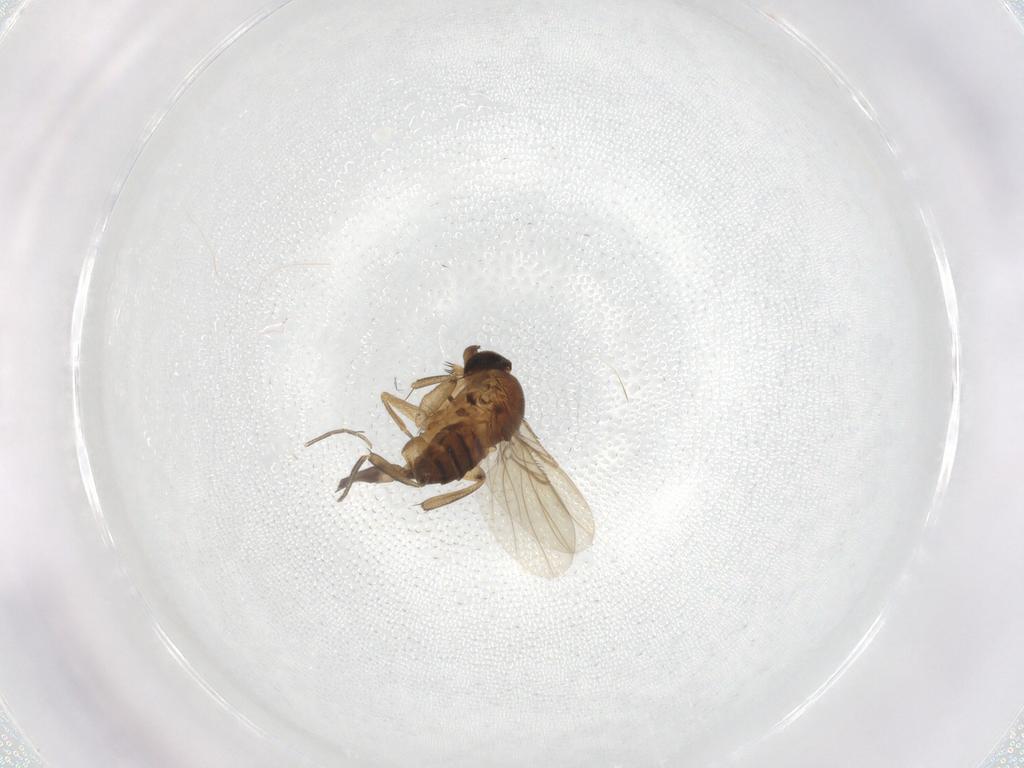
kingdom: Animalia
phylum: Arthropoda
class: Insecta
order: Diptera
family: Phoridae
